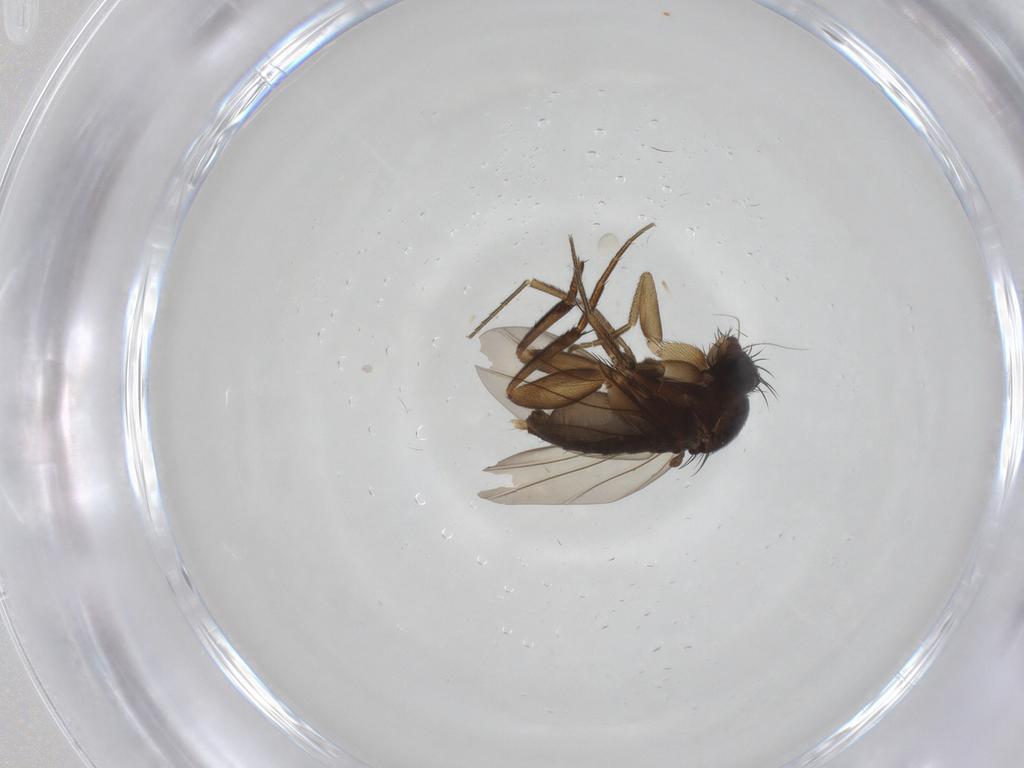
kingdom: Animalia
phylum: Arthropoda
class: Insecta
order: Diptera
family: Phoridae
